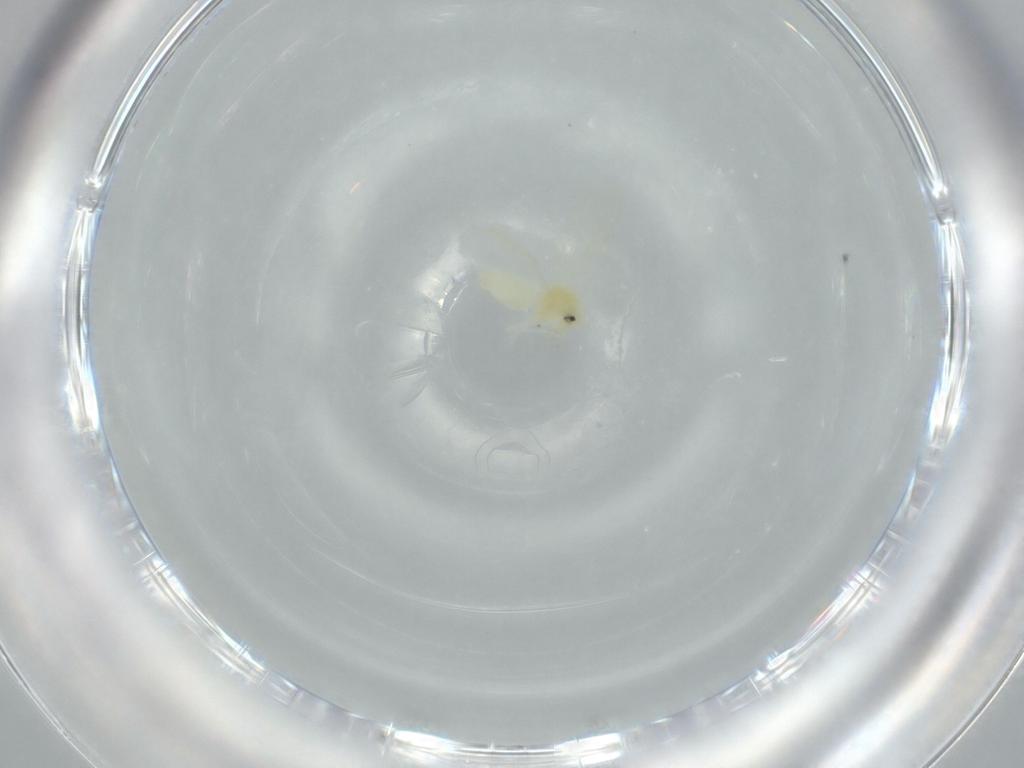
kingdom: Animalia
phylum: Arthropoda
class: Insecta
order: Hemiptera
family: Aleyrodidae
